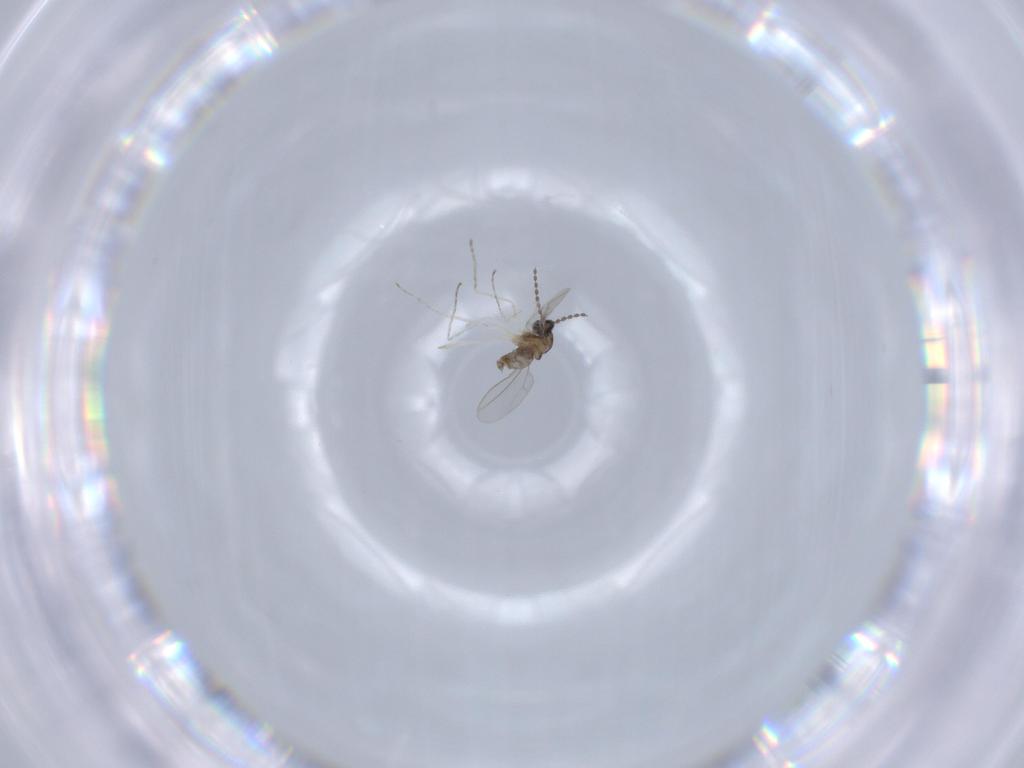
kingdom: Animalia
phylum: Arthropoda
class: Insecta
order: Diptera
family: Cecidomyiidae
